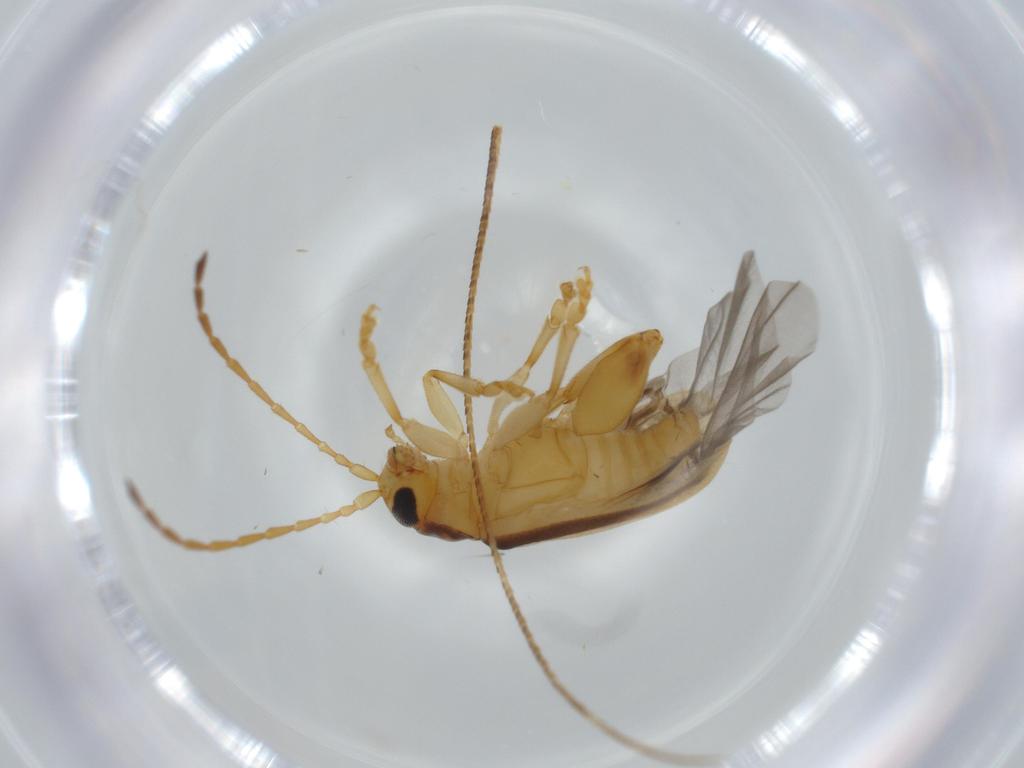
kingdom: Animalia
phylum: Arthropoda
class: Insecta
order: Coleoptera
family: Chrysomelidae
